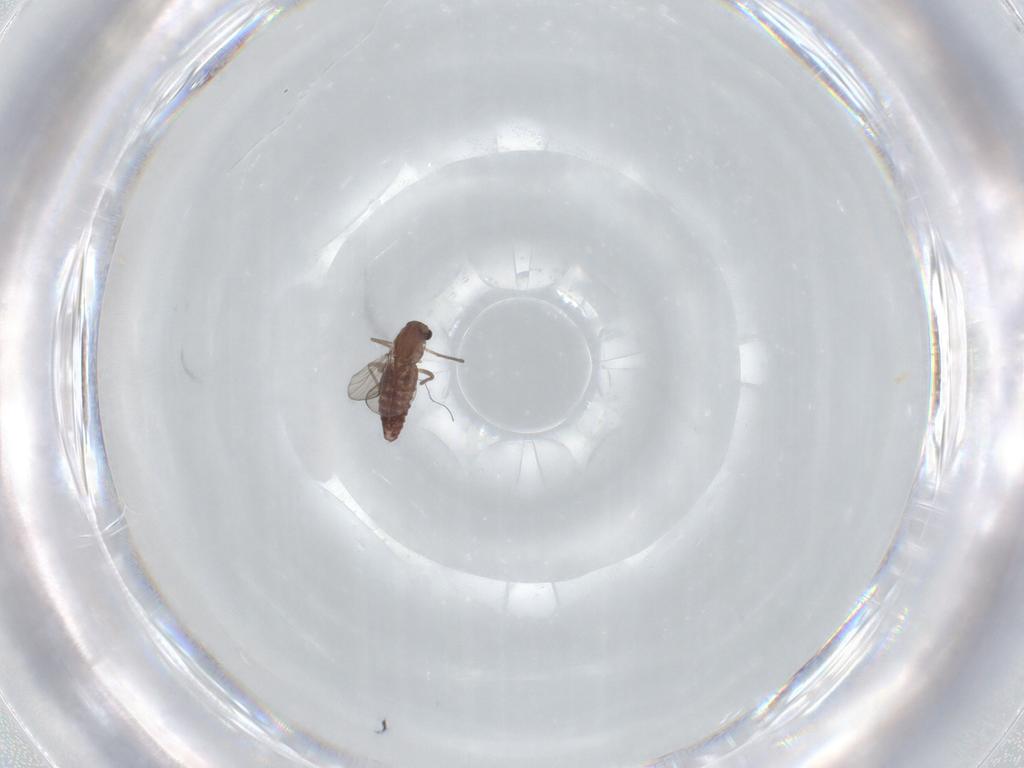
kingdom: Animalia
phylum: Arthropoda
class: Insecta
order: Diptera
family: Chironomidae
